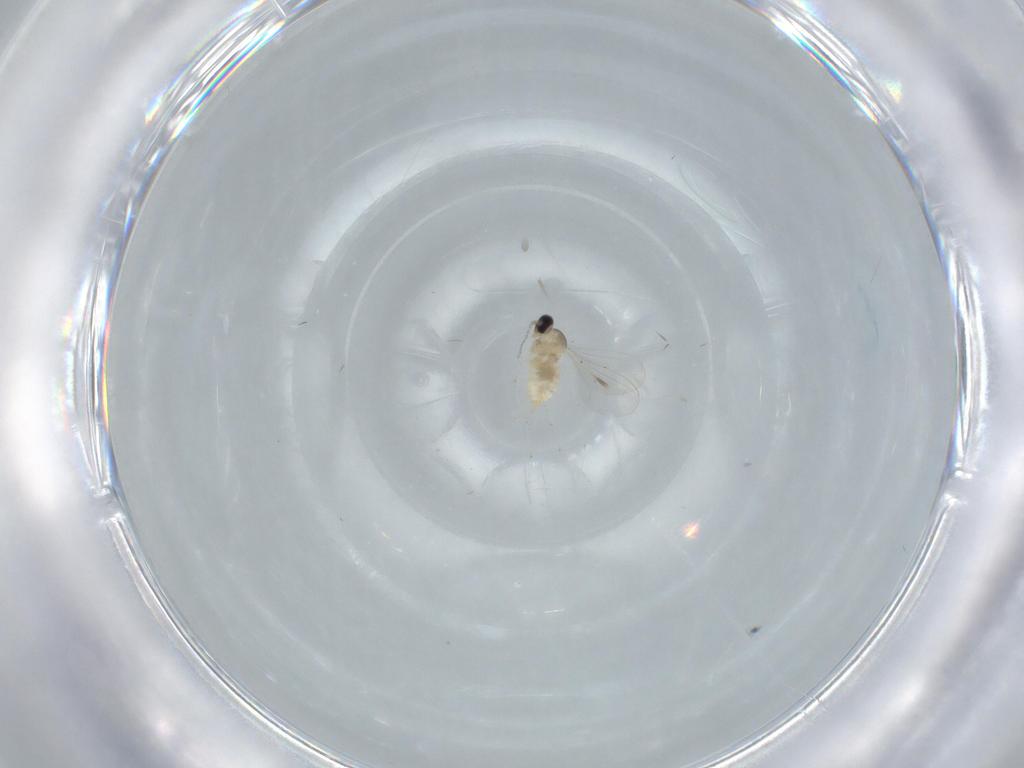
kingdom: Animalia
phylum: Arthropoda
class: Insecta
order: Diptera
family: Cecidomyiidae
